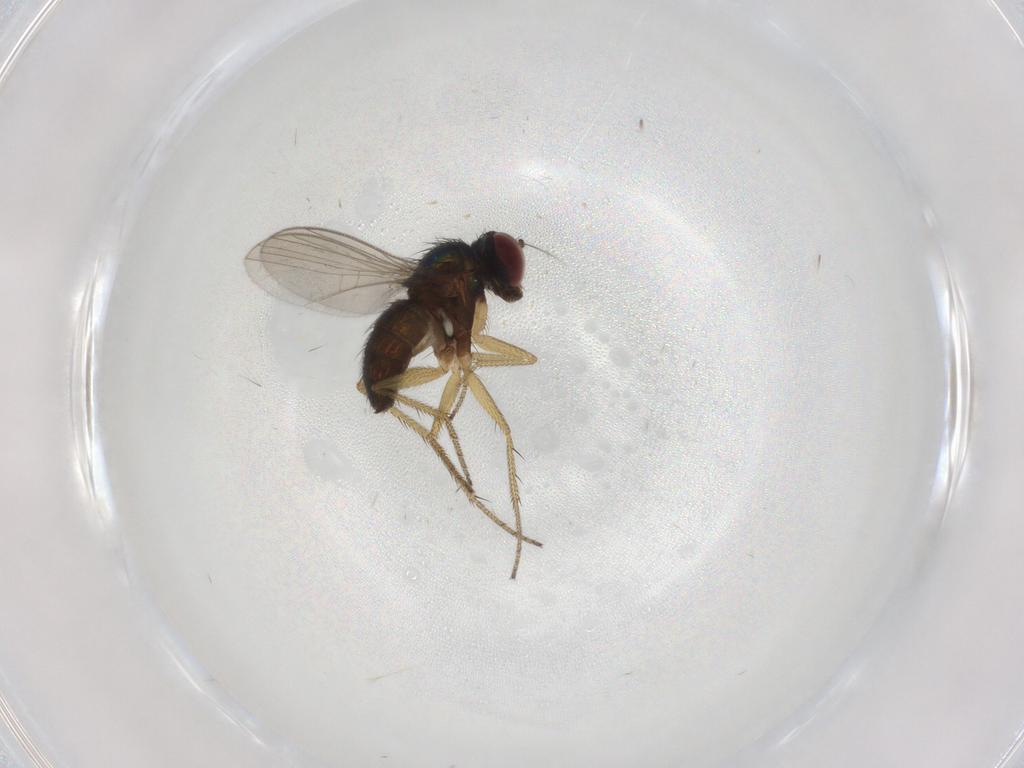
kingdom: Animalia
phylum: Arthropoda
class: Insecta
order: Diptera
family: Dolichopodidae
